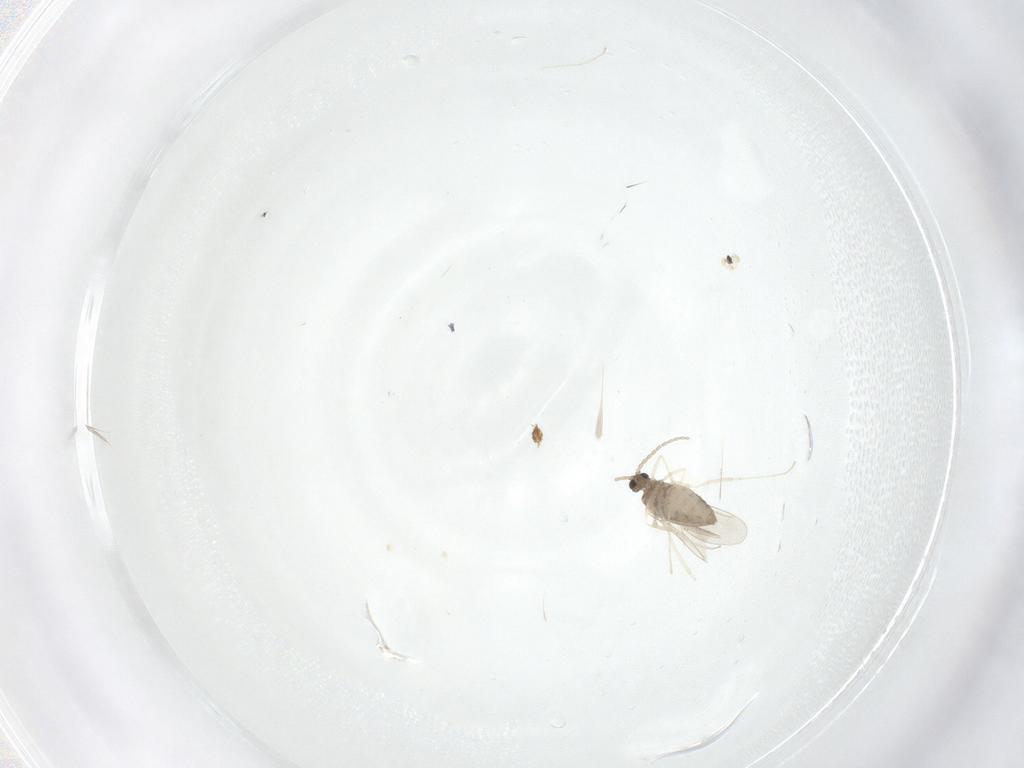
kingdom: Animalia
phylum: Arthropoda
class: Insecta
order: Diptera
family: Cecidomyiidae
